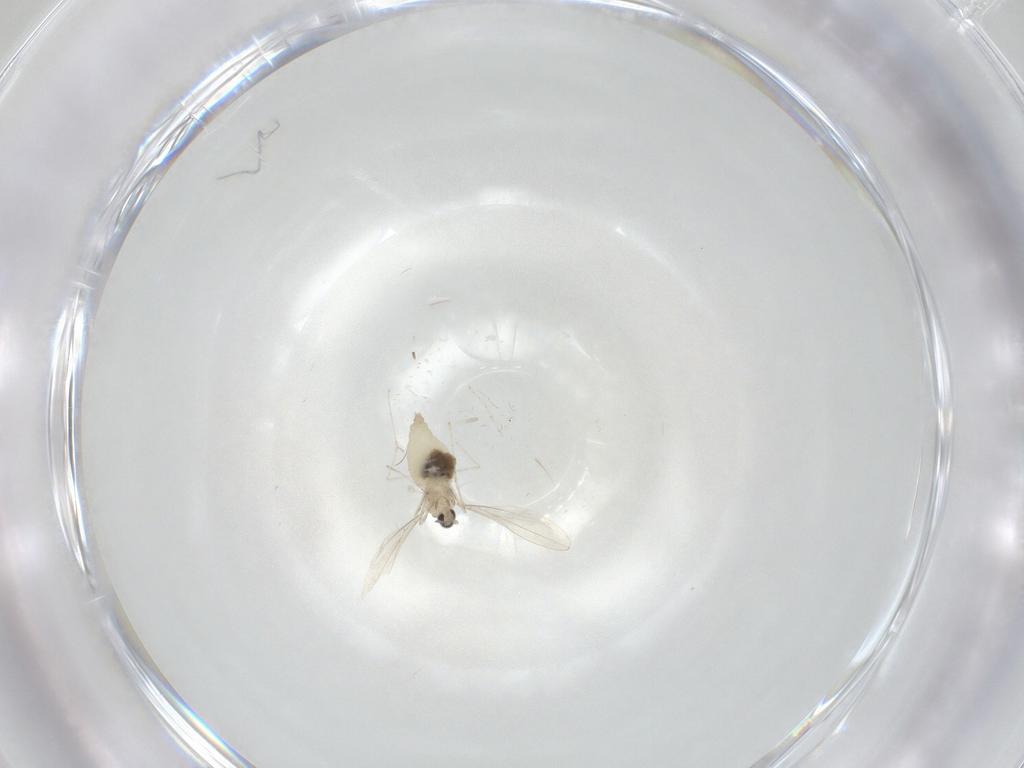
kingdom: Animalia
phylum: Arthropoda
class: Insecta
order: Diptera
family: Cecidomyiidae
